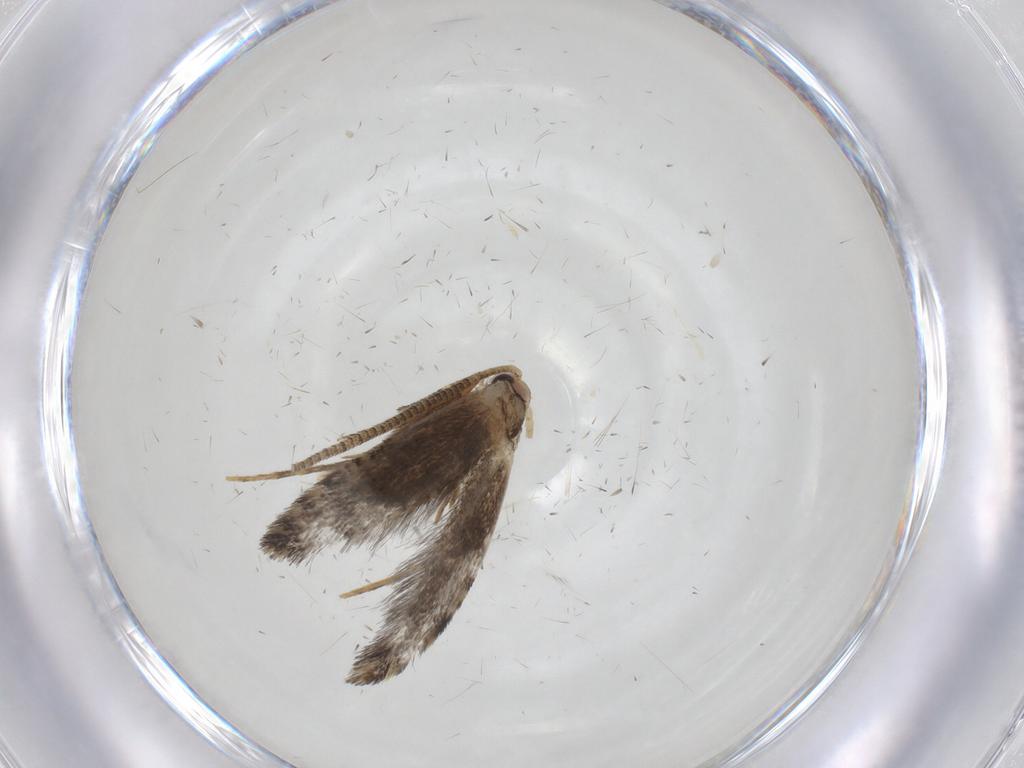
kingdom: Animalia
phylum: Arthropoda
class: Insecta
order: Lepidoptera
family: Tineidae
